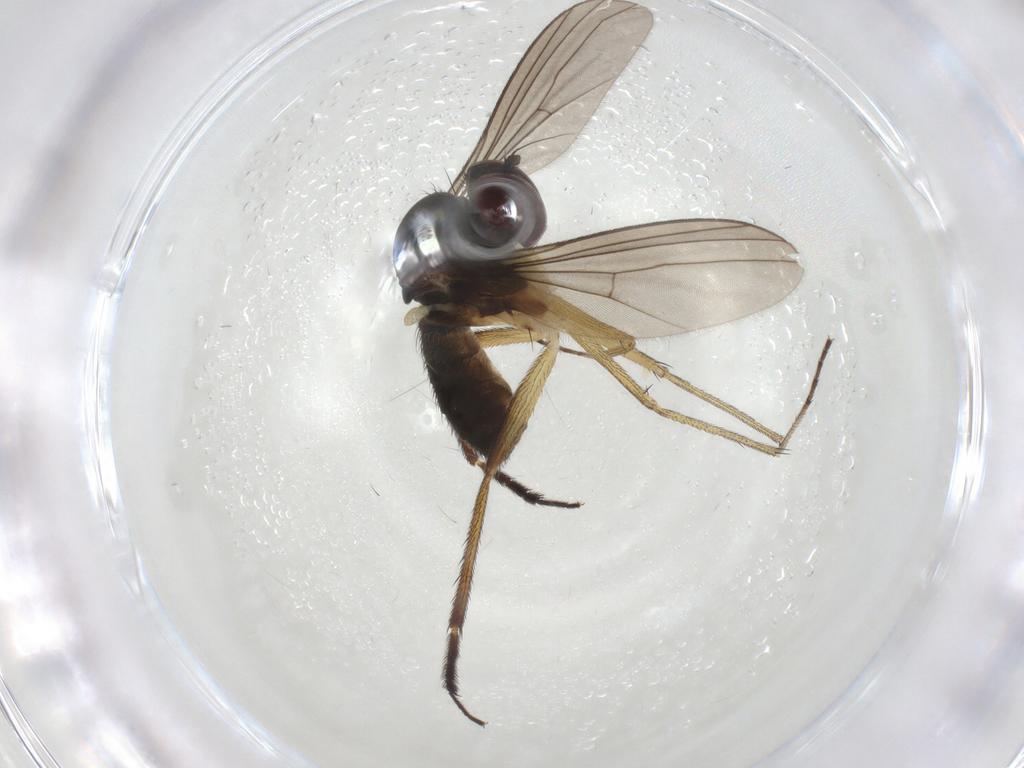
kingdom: Animalia
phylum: Arthropoda
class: Insecta
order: Diptera
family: Dolichopodidae
